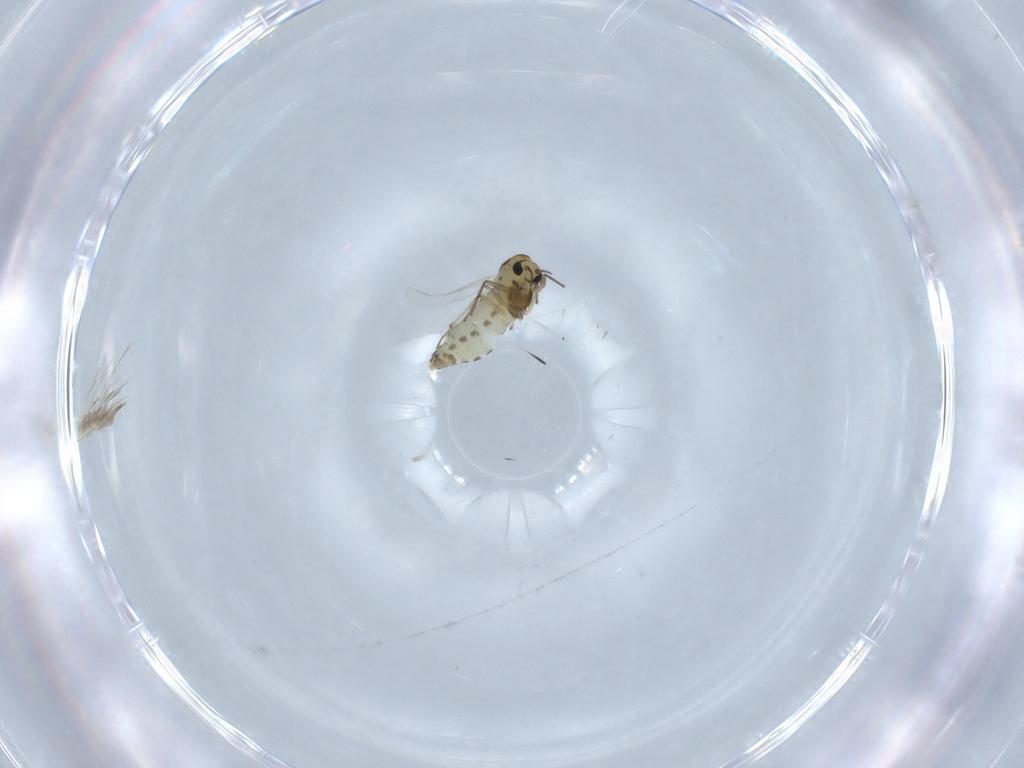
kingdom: Animalia
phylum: Arthropoda
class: Insecta
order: Diptera
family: Chironomidae
